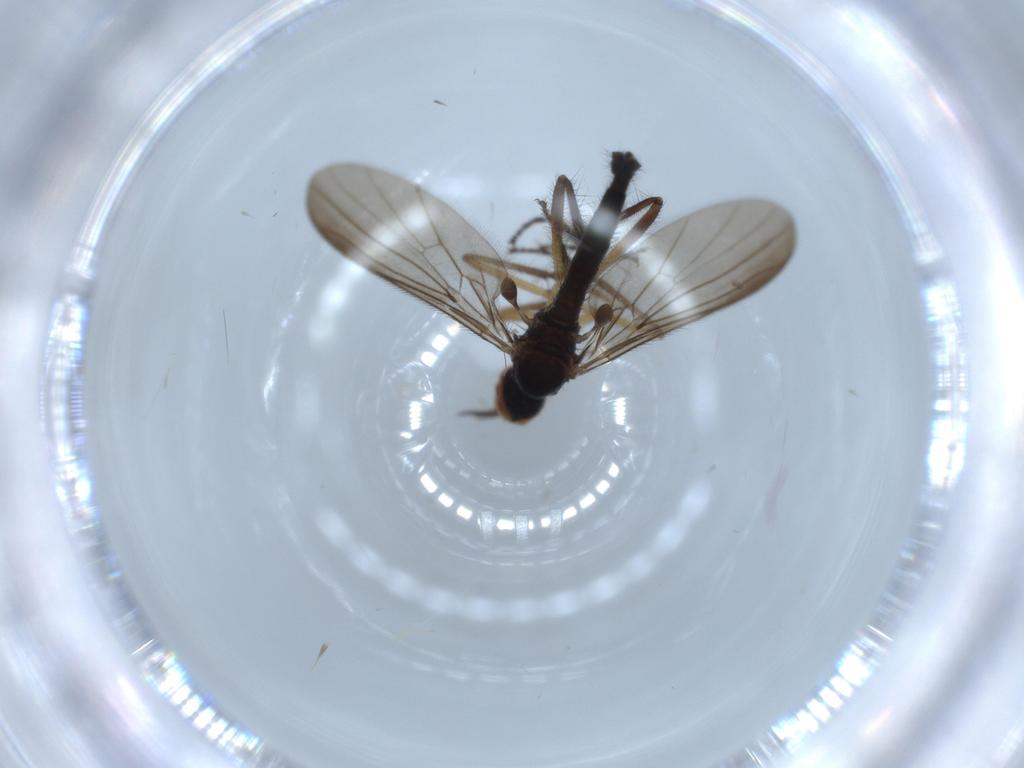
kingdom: Animalia
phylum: Arthropoda
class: Insecta
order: Diptera
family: Empididae
